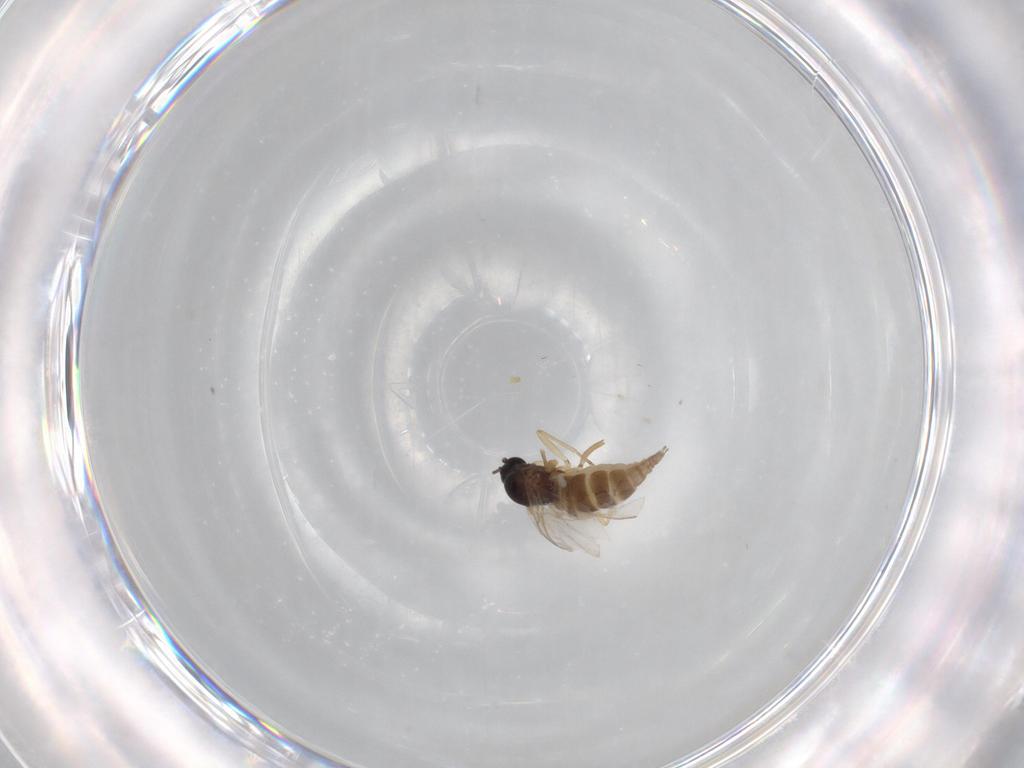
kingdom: Animalia
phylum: Arthropoda
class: Insecta
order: Diptera
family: Sciaridae
